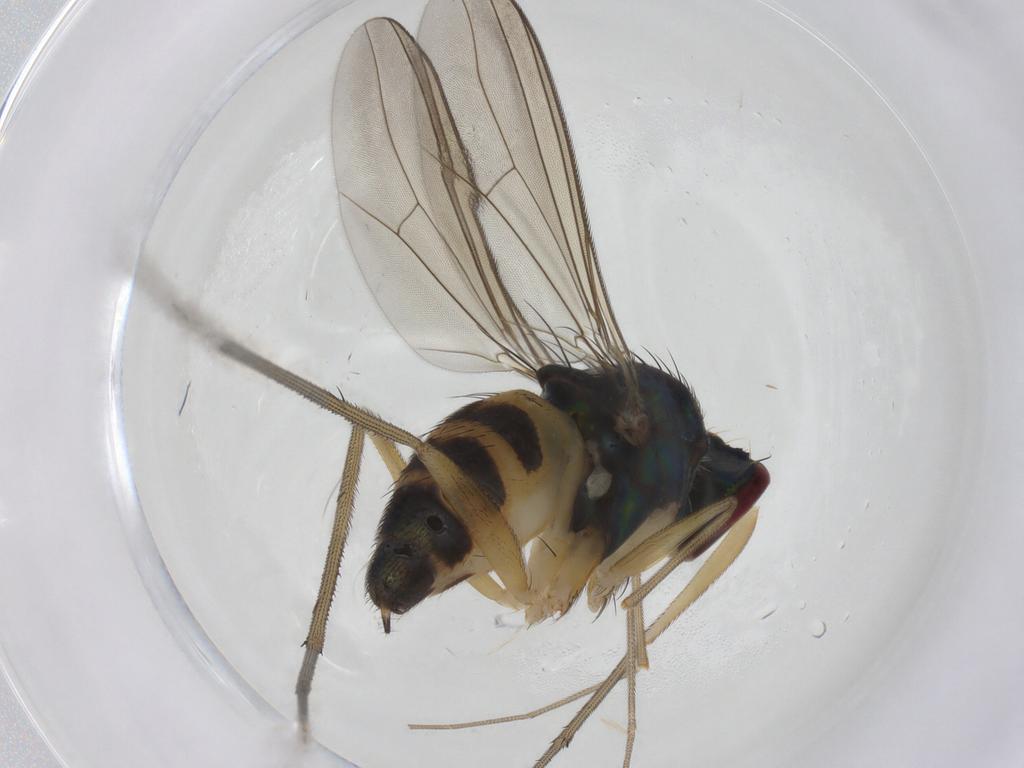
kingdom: Animalia
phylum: Arthropoda
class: Insecta
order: Diptera
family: Dolichopodidae
